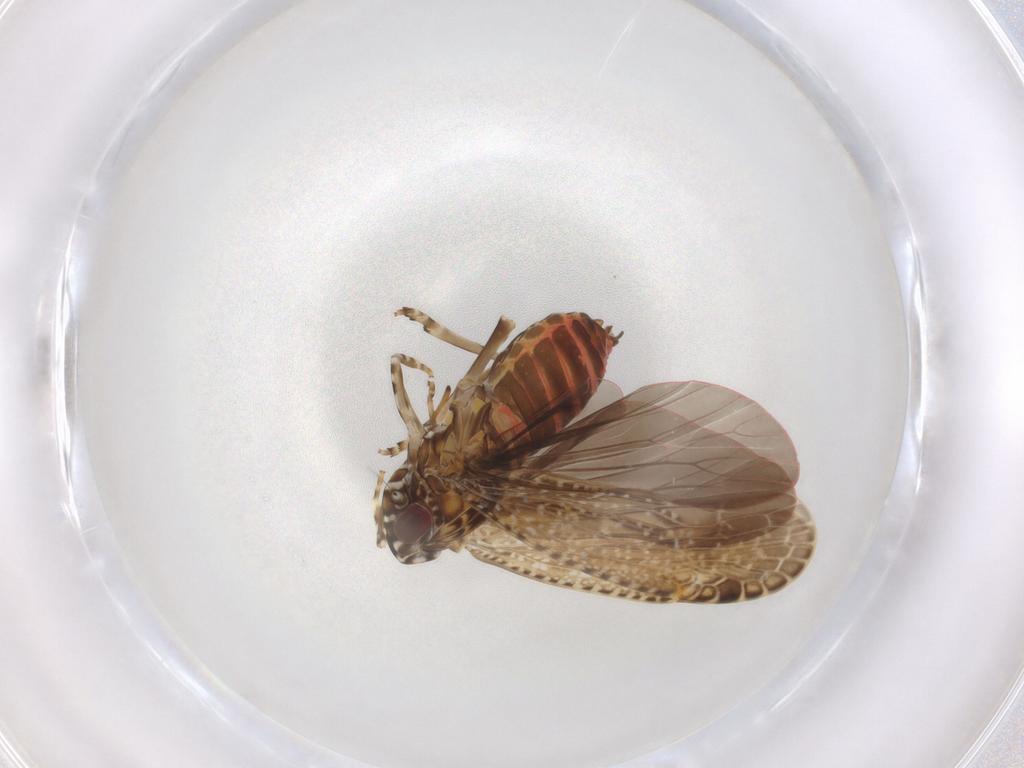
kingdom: Animalia
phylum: Arthropoda
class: Insecta
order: Hemiptera
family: Achilidae
